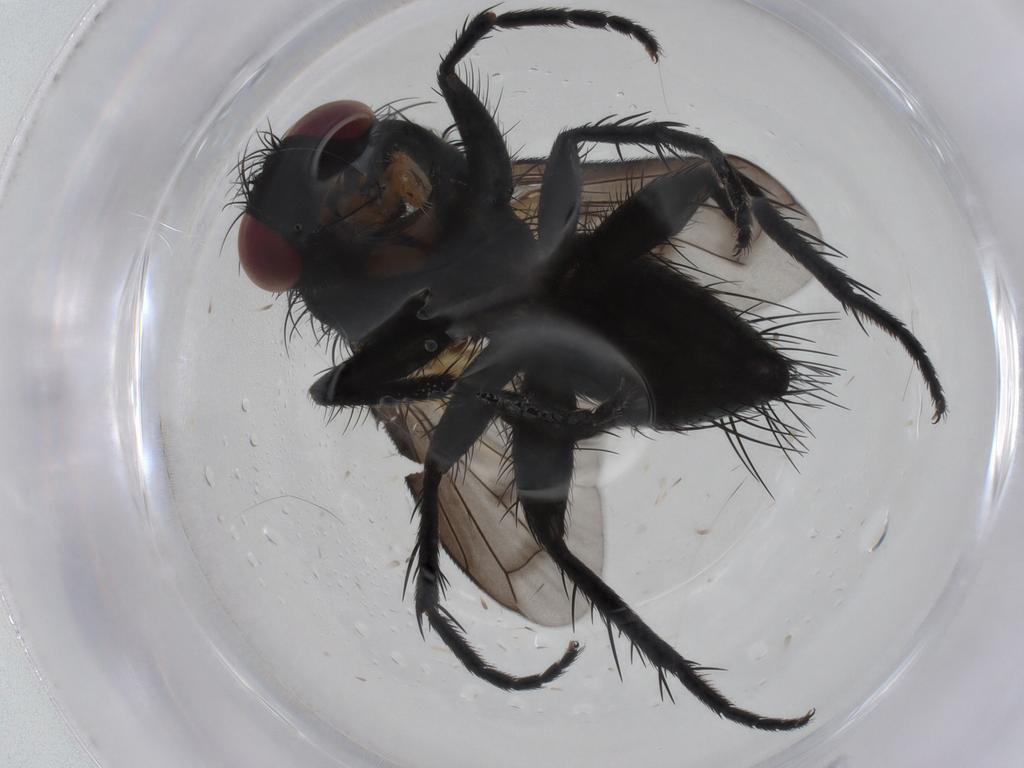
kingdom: Animalia
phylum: Arthropoda
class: Insecta
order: Diptera
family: Tachinidae
